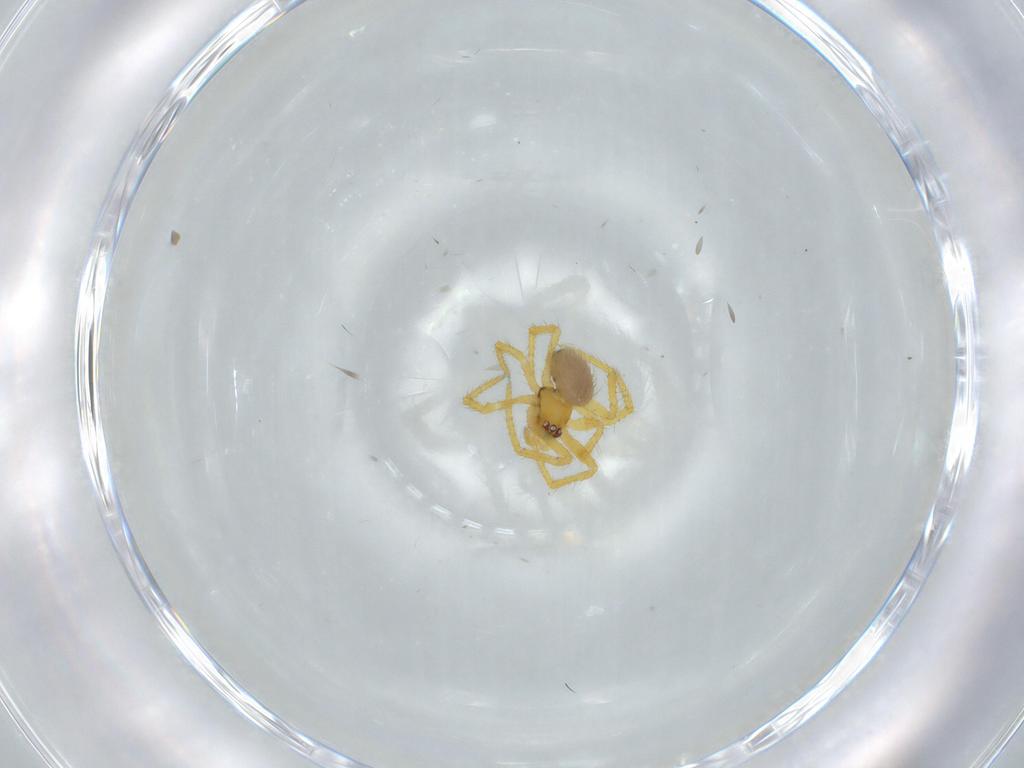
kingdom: Animalia
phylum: Arthropoda
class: Arachnida
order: Araneae
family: Theridiidae
